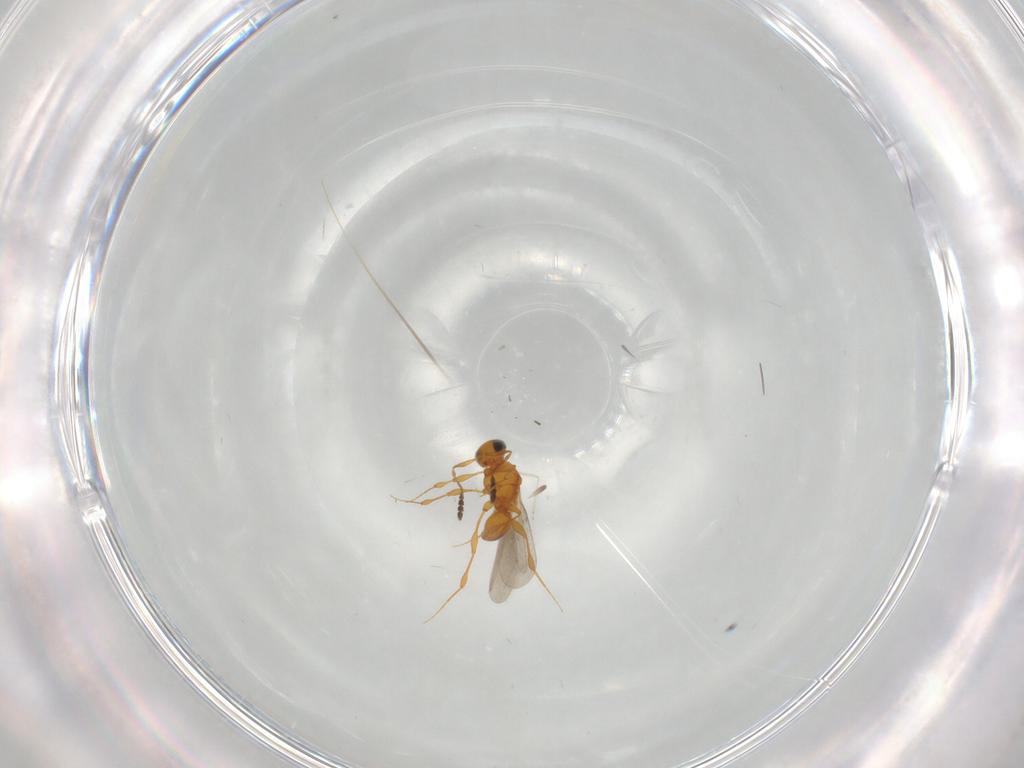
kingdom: Animalia
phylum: Arthropoda
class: Insecta
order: Hymenoptera
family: Platygastridae
